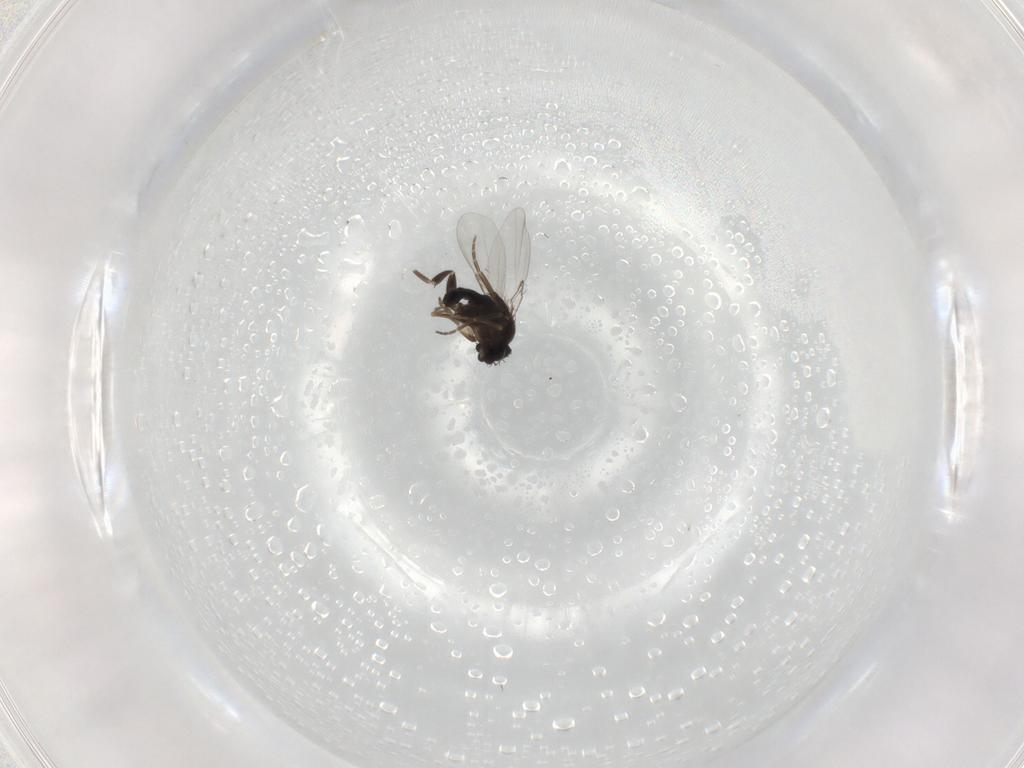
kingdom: Animalia
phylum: Arthropoda
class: Insecta
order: Diptera
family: Phoridae
